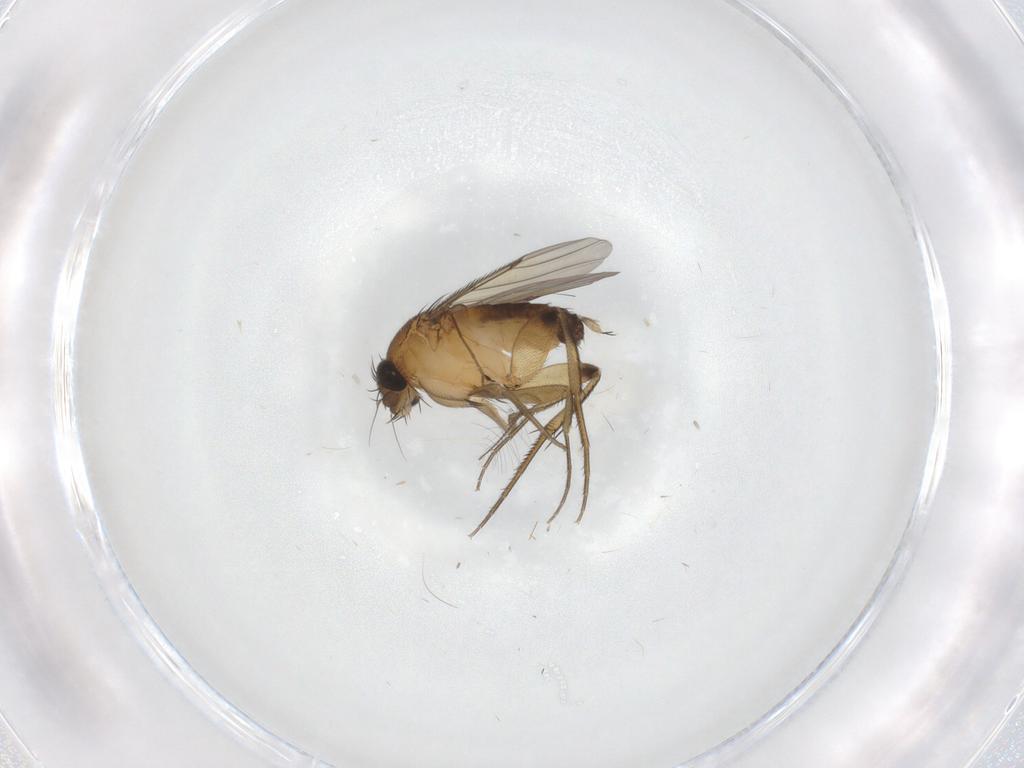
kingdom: Animalia
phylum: Arthropoda
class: Insecta
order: Diptera
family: Phoridae
